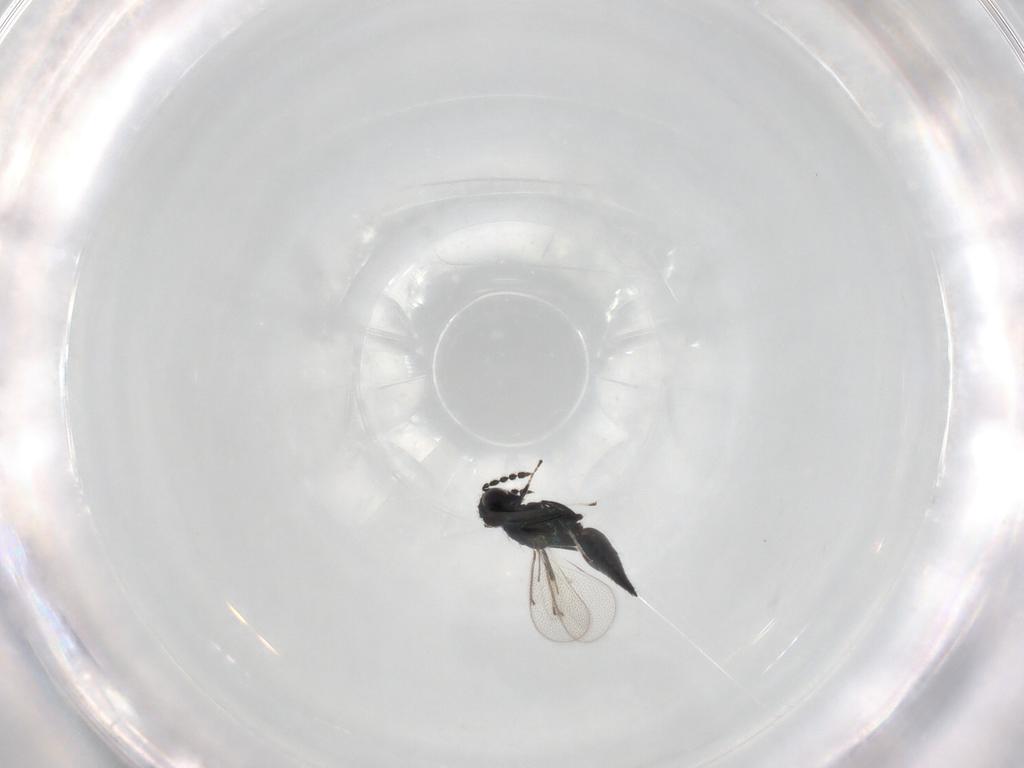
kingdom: Animalia
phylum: Arthropoda
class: Insecta
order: Hymenoptera
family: Eulophidae
